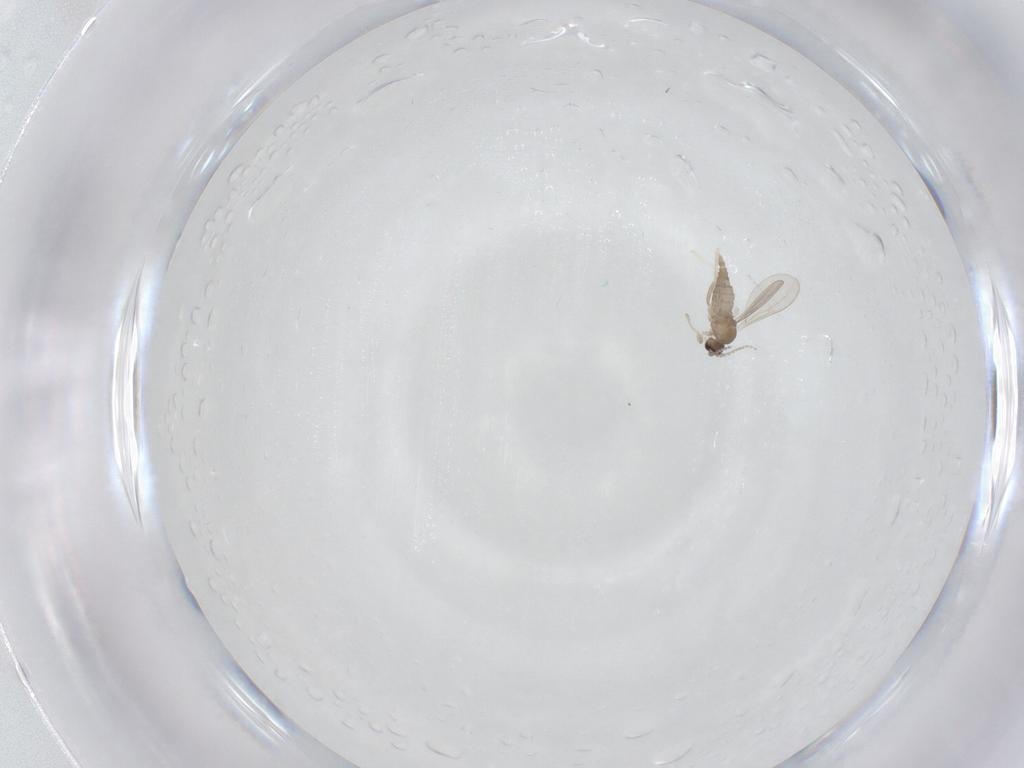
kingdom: Animalia
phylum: Arthropoda
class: Insecta
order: Diptera
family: Cecidomyiidae
